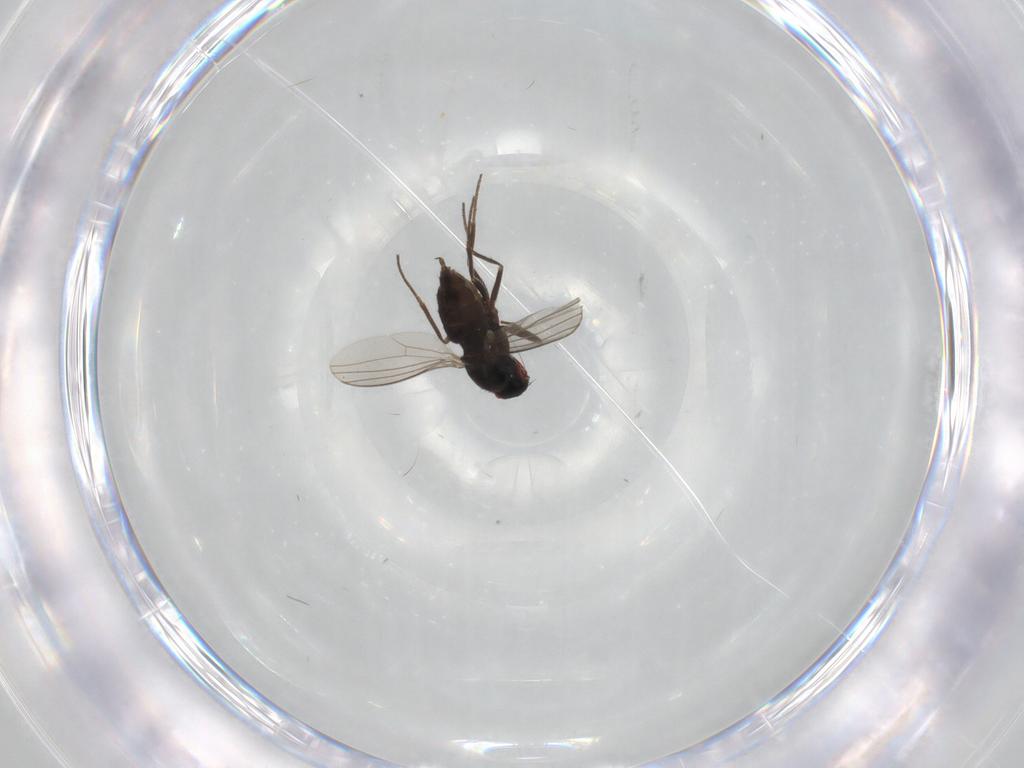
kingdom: Animalia
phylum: Arthropoda
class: Insecta
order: Diptera
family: Dolichopodidae
